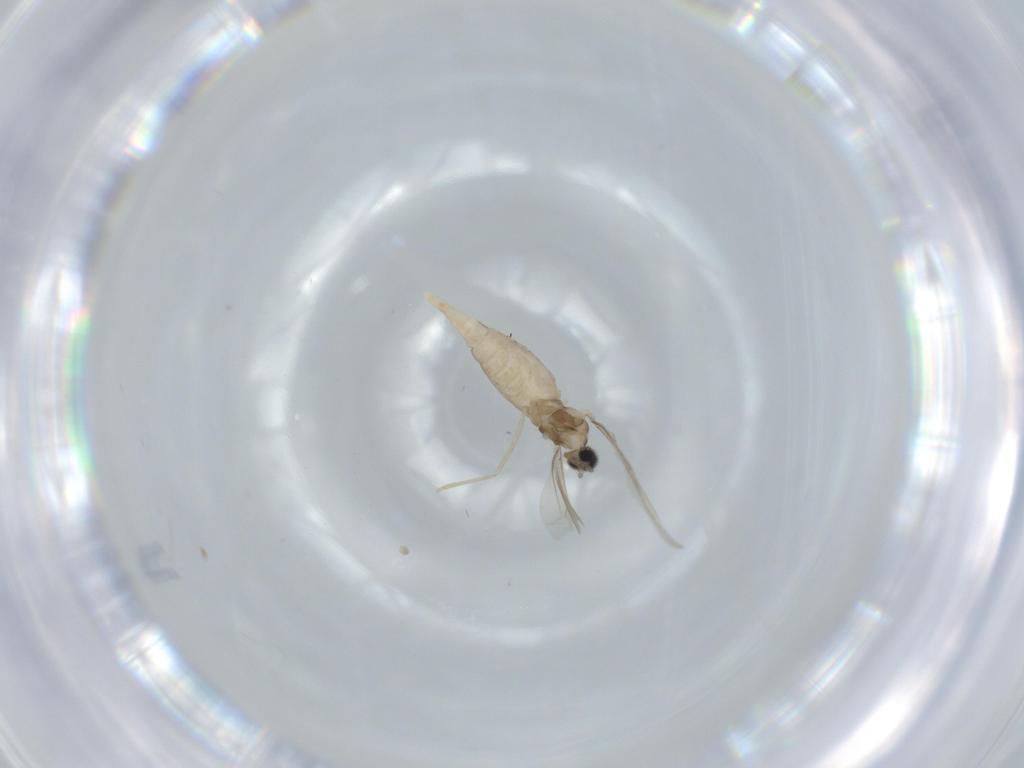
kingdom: Animalia
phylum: Arthropoda
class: Insecta
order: Diptera
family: Cecidomyiidae
